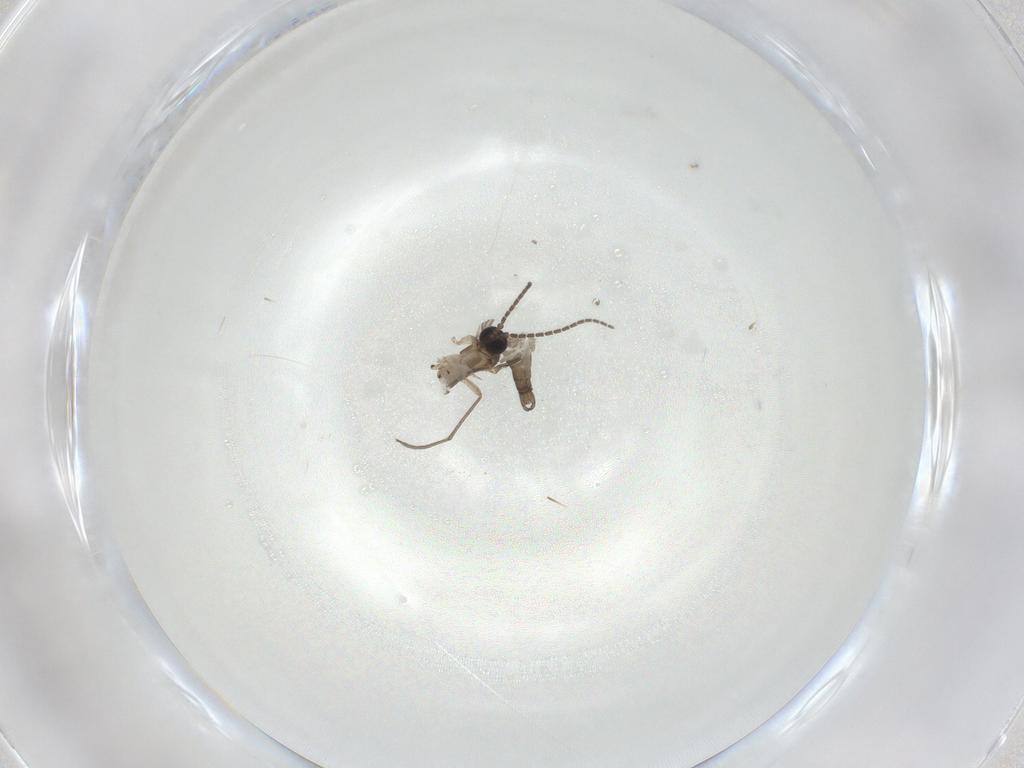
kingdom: Animalia
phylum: Arthropoda
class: Insecta
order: Diptera
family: Sciaridae
